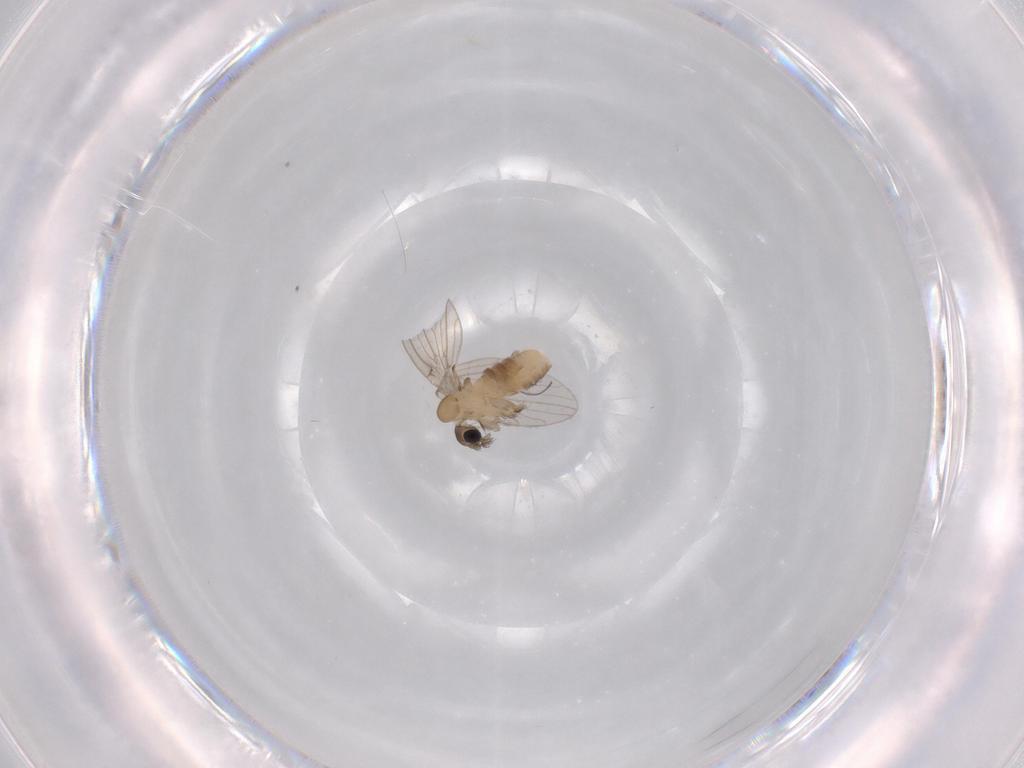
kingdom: Animalia
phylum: Arthropoda
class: Insecta
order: Diptera
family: Psychodidae
